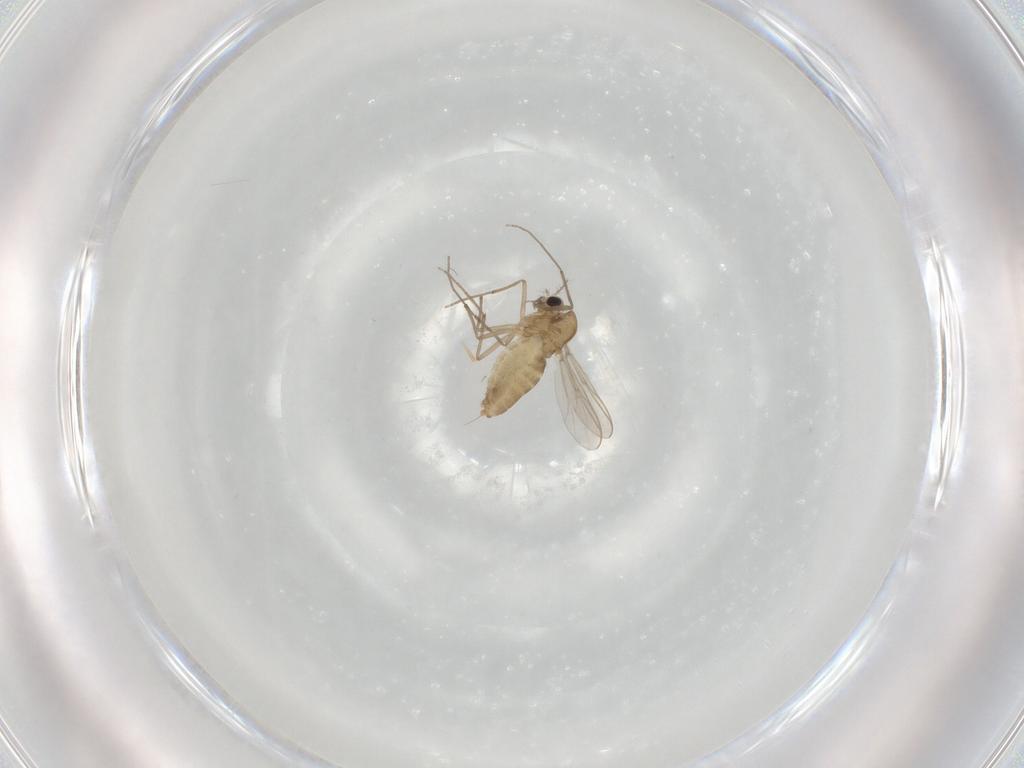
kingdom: Animalia
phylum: Arthropoda
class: Insecta
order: Diptera
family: Chironomidae
